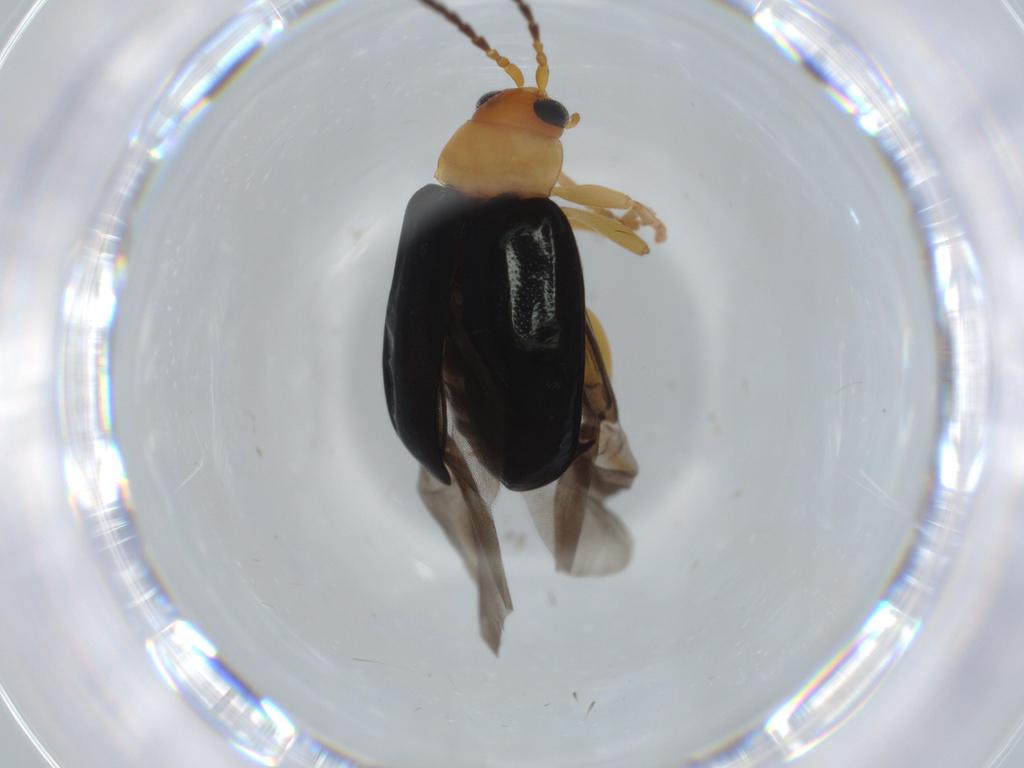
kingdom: Animalia
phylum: Arthropoda
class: Insecta
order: Coleoptera
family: Chrysomelidae
